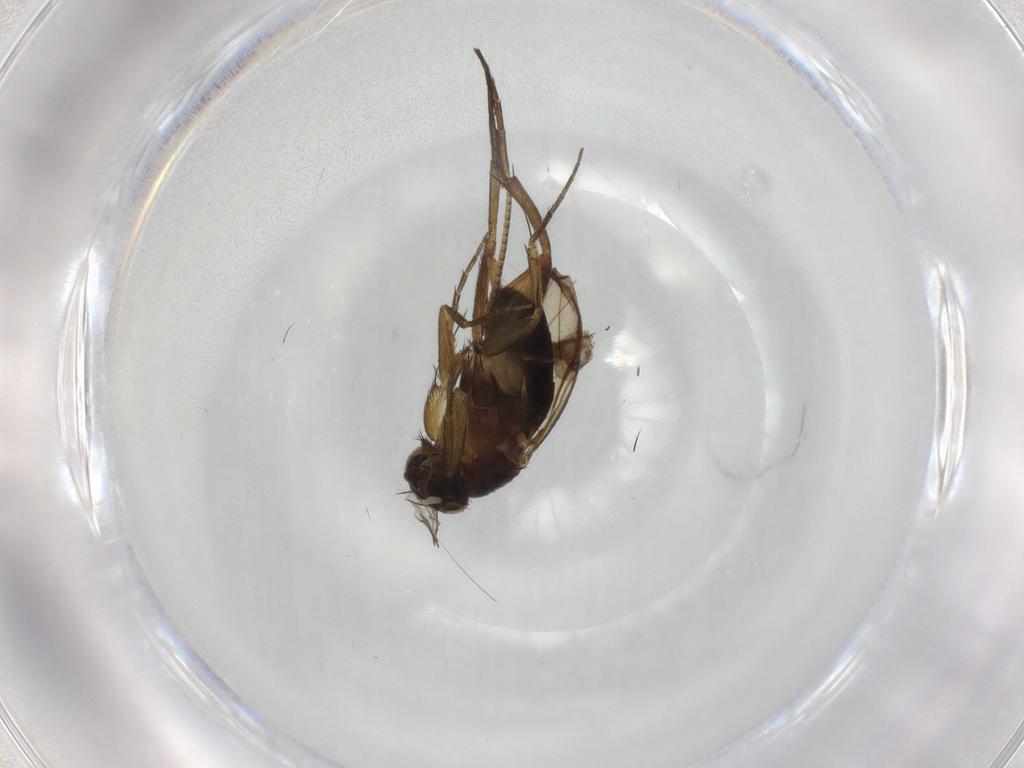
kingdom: Animalia
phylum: Arthropoda
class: Insecta
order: Diptera
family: Cecidomyiidae
